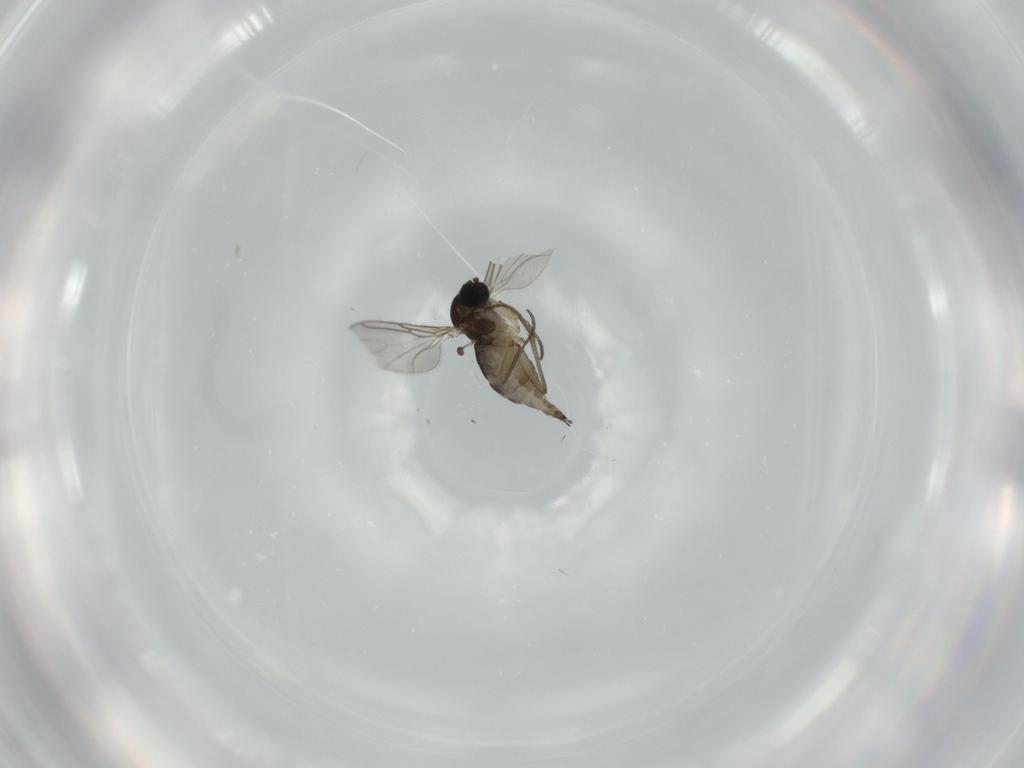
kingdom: Animalia
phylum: Arthropoda
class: Insecta
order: Diptera
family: Sciaridae
